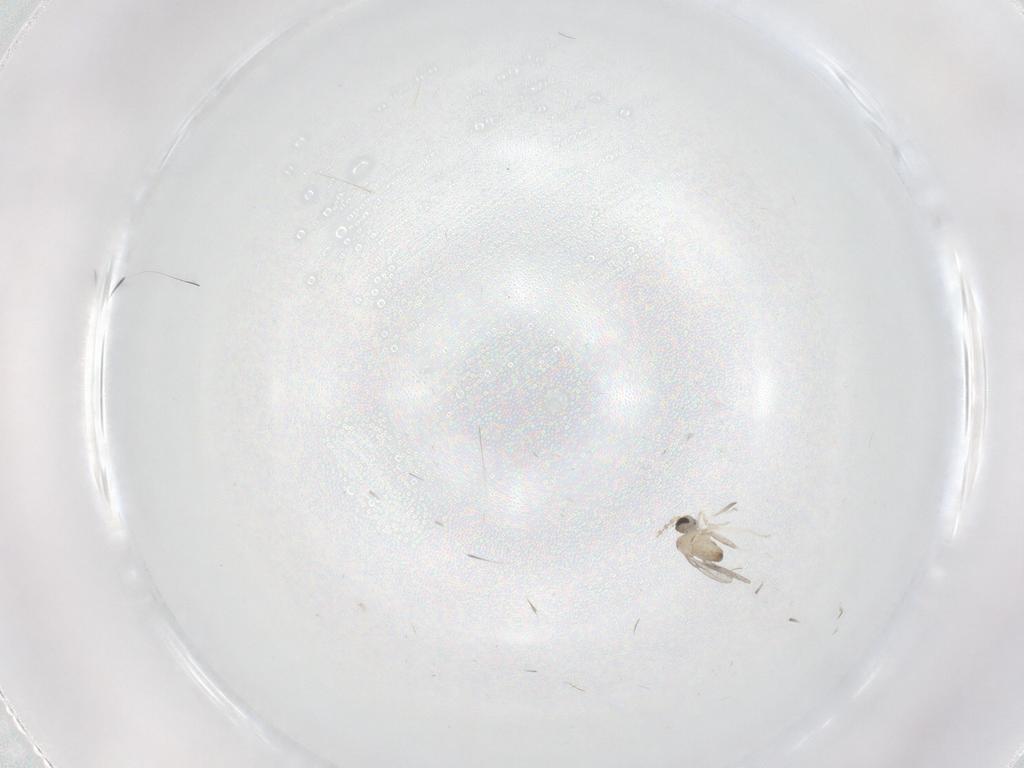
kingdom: Animalia
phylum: Arthropoda
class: Insecta
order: Diptera
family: Cecidomyiidae
